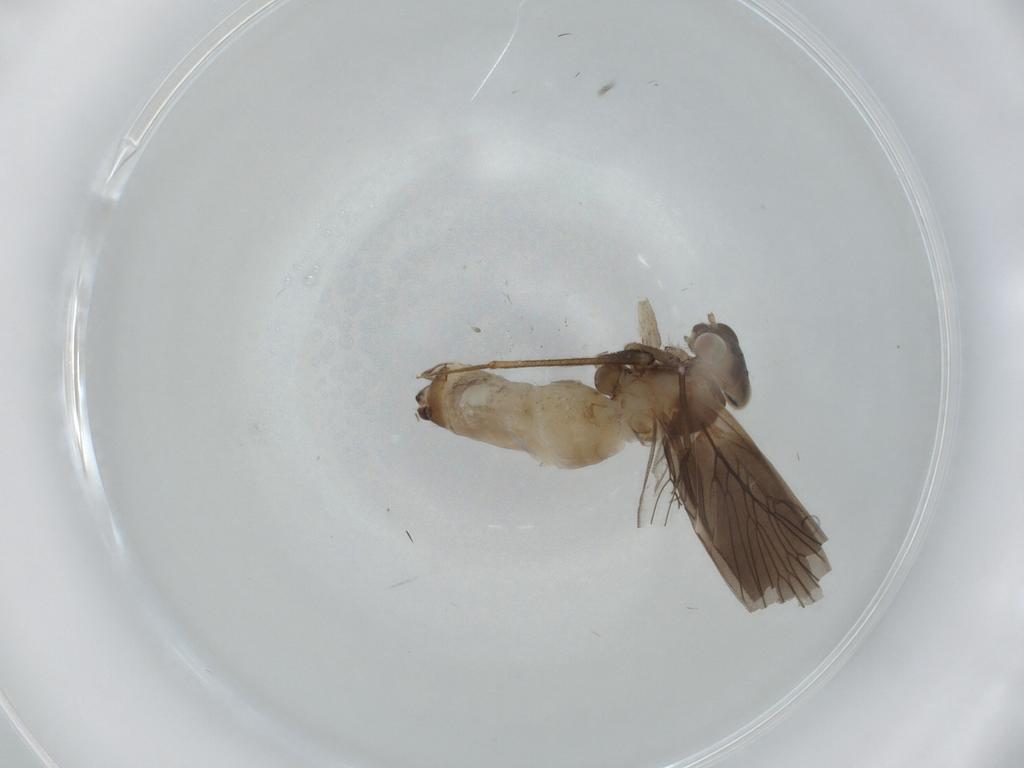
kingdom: Animalia
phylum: Arthropoda
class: Insecta
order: Psocodea
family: Lepidopsocidae
